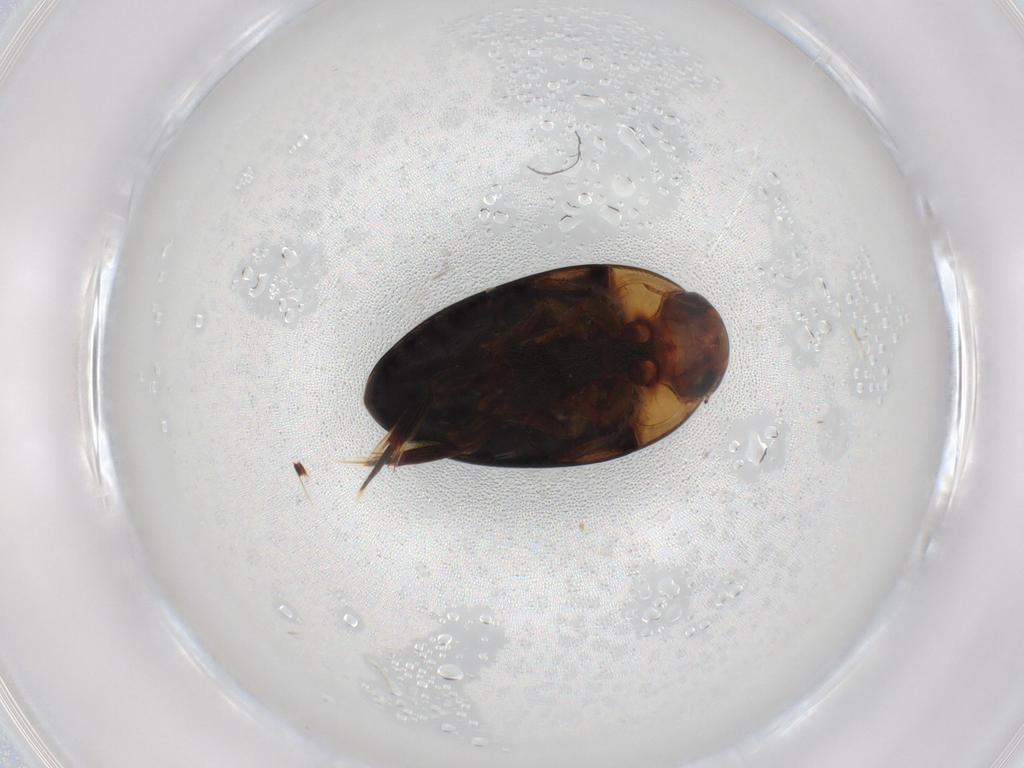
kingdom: Animalia
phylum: Arthropoda
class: Insecta
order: Coleoptera
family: Noteridae
